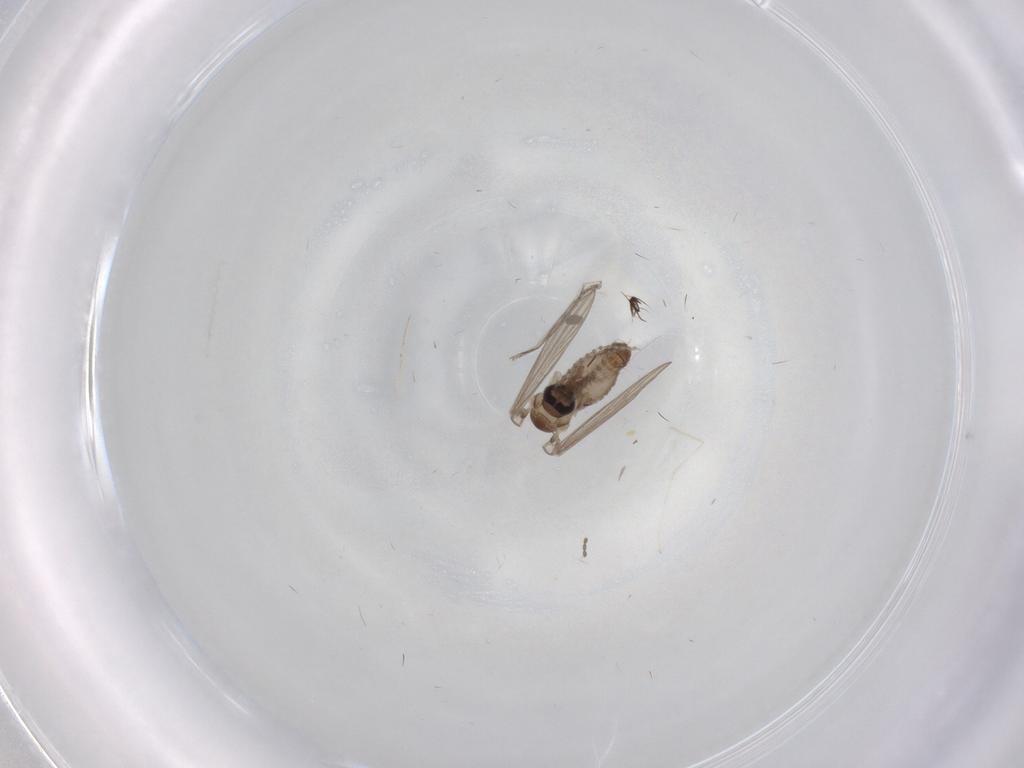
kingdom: Animalia
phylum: Arthropoda
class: Insecta
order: Diptera
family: Psychodidae
